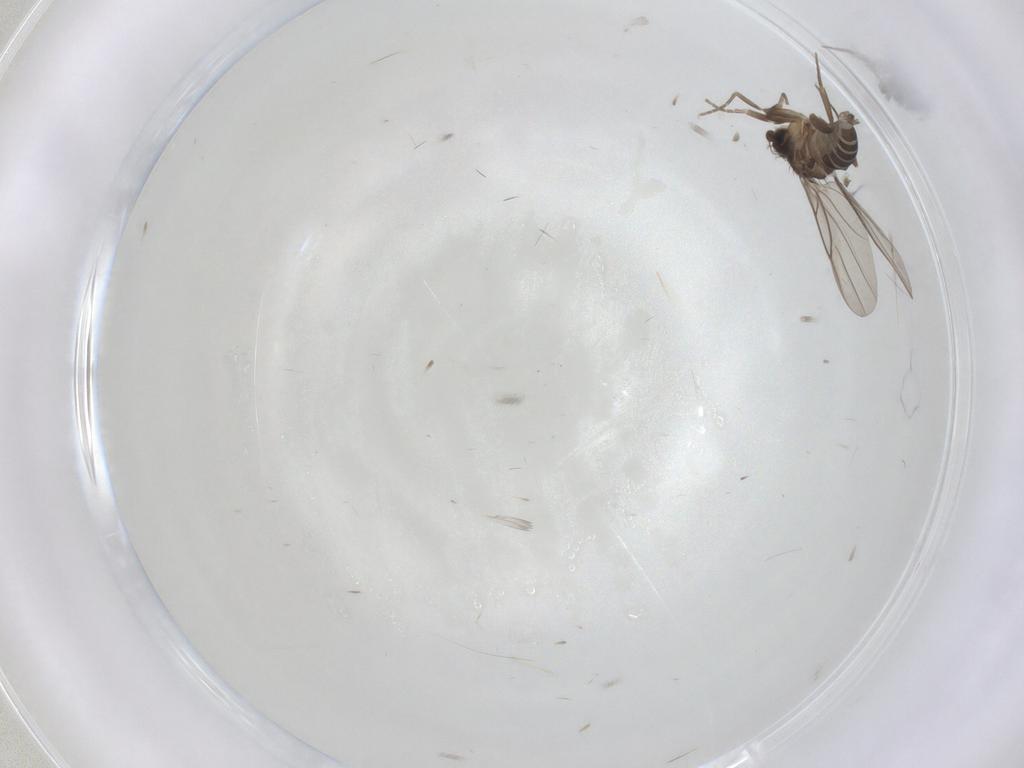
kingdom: Animalia
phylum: Arthropoda
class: Insecta
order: Diptera
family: Phoridae
